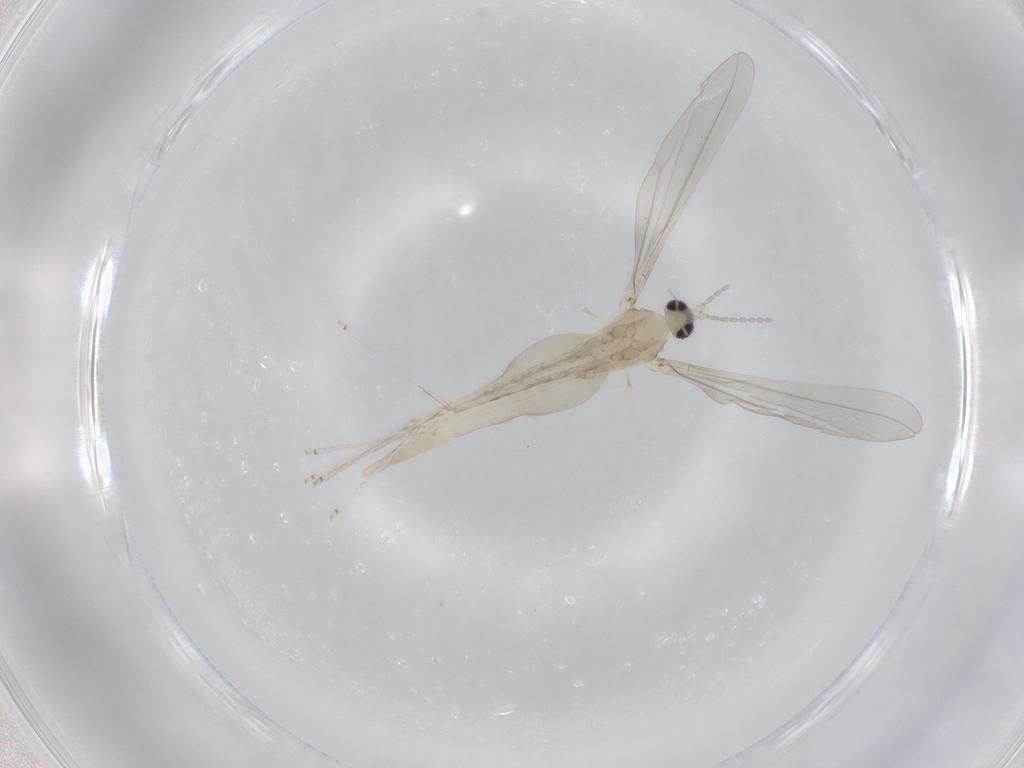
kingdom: Animalia
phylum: Arthropoda
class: Insecta
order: Diptera
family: Cecidomyiidae
